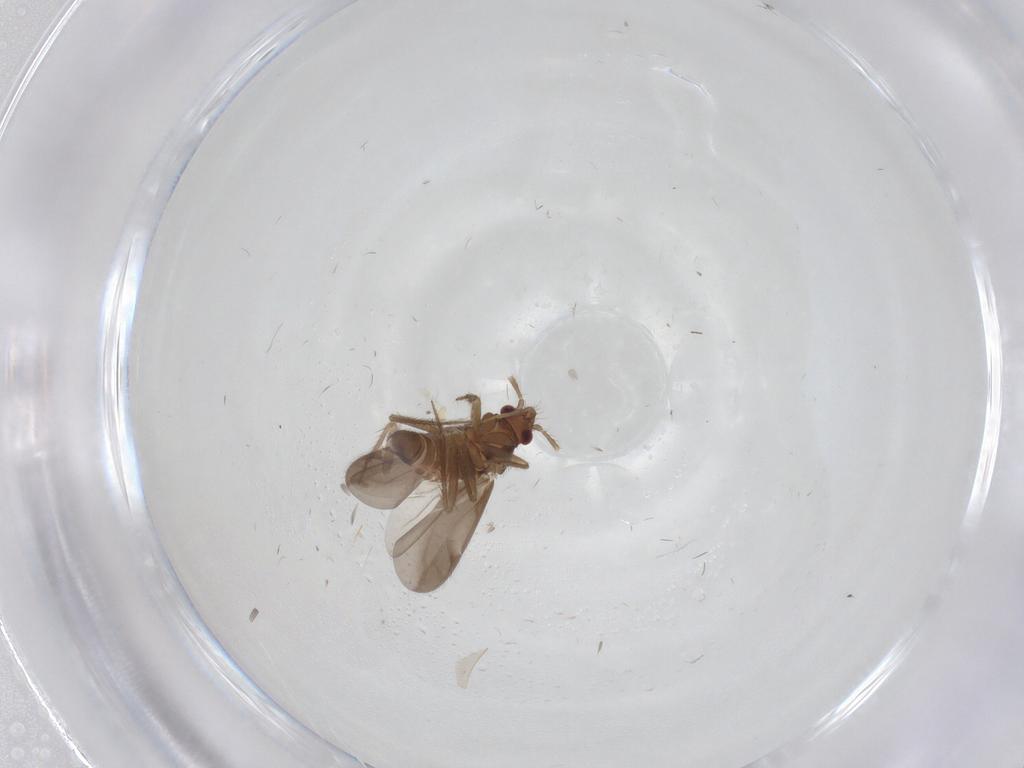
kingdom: Animalia
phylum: Arthropoda
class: Insecta
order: Hemiptera
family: Ceratocombidae
